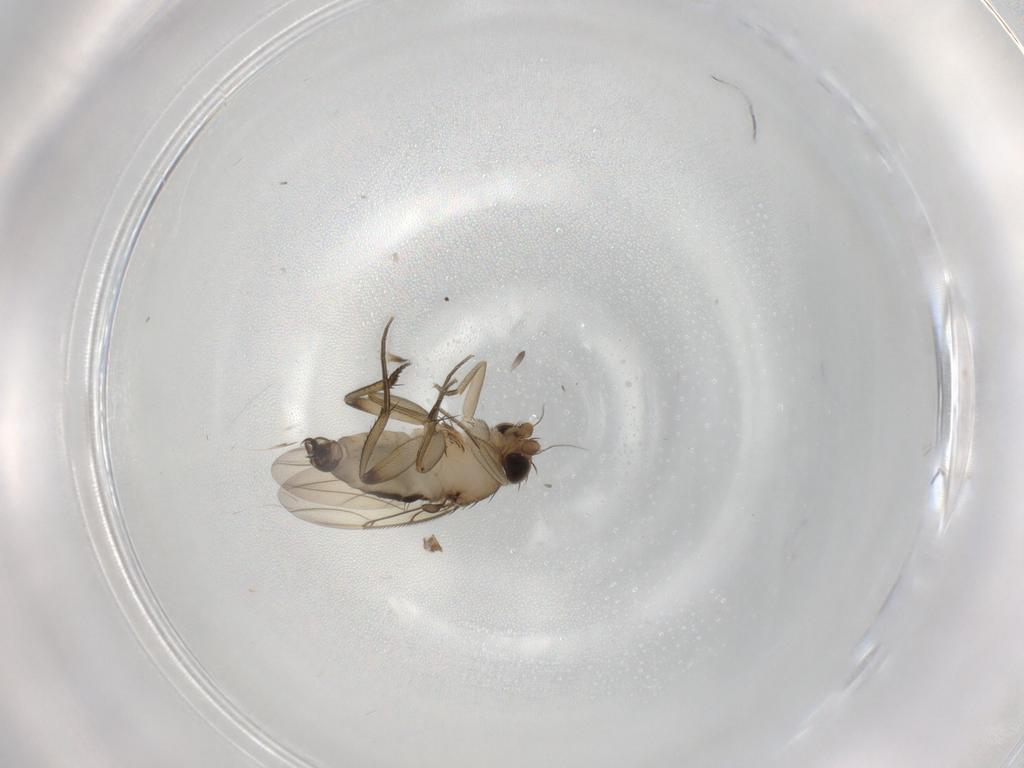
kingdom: Animalia
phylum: Arthropoda
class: Insecta
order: Diptera
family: Phoridae
